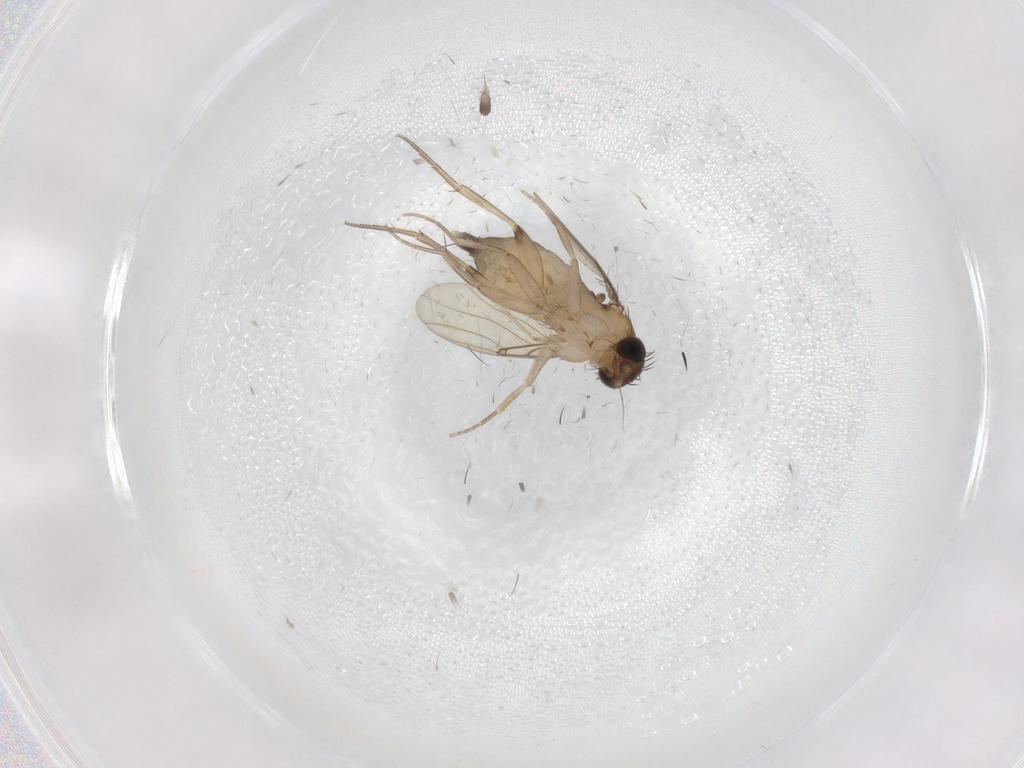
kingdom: Animalia
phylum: Arthropoda
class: Insecta
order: Diptera
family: Phoridae
